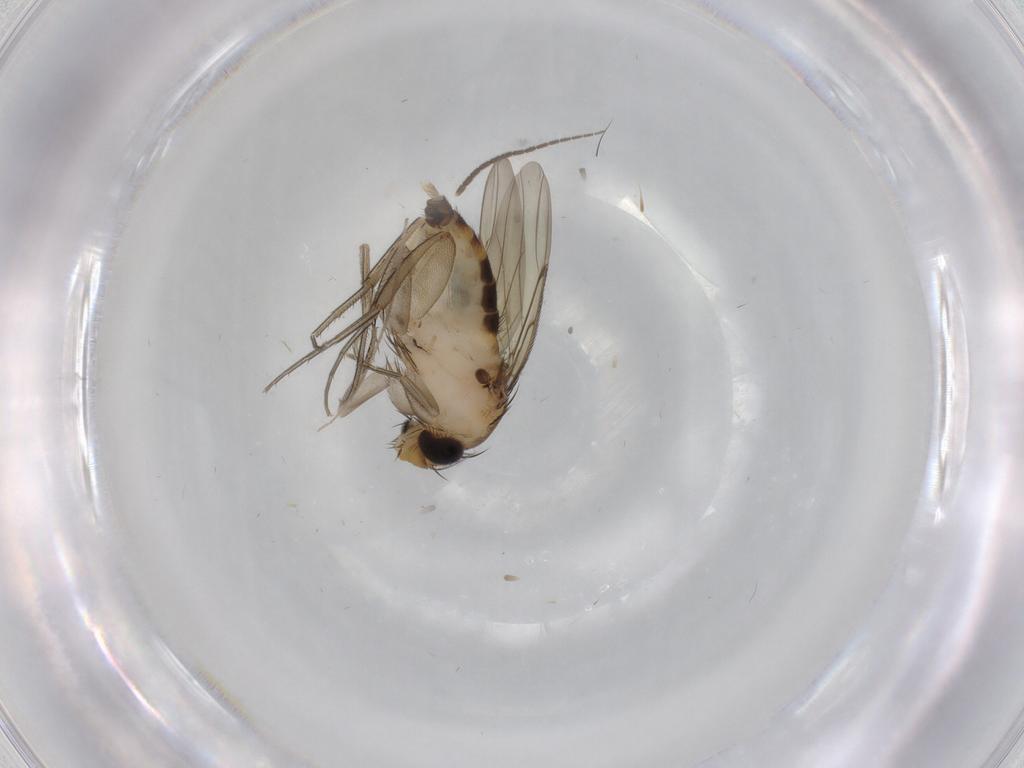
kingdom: Animalia
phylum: Arthropoda
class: Insecta
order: Diptera
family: Phoridae
